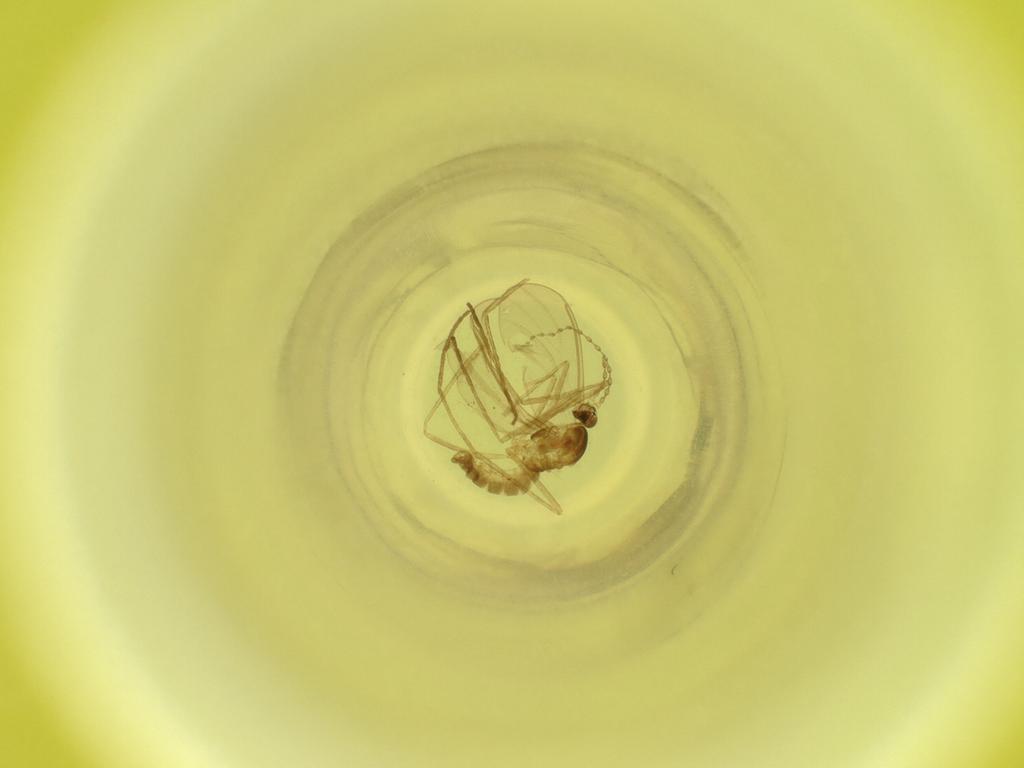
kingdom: Animalia
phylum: Arthropoda
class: Insecta
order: Diptera
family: Cecidomyiidae
